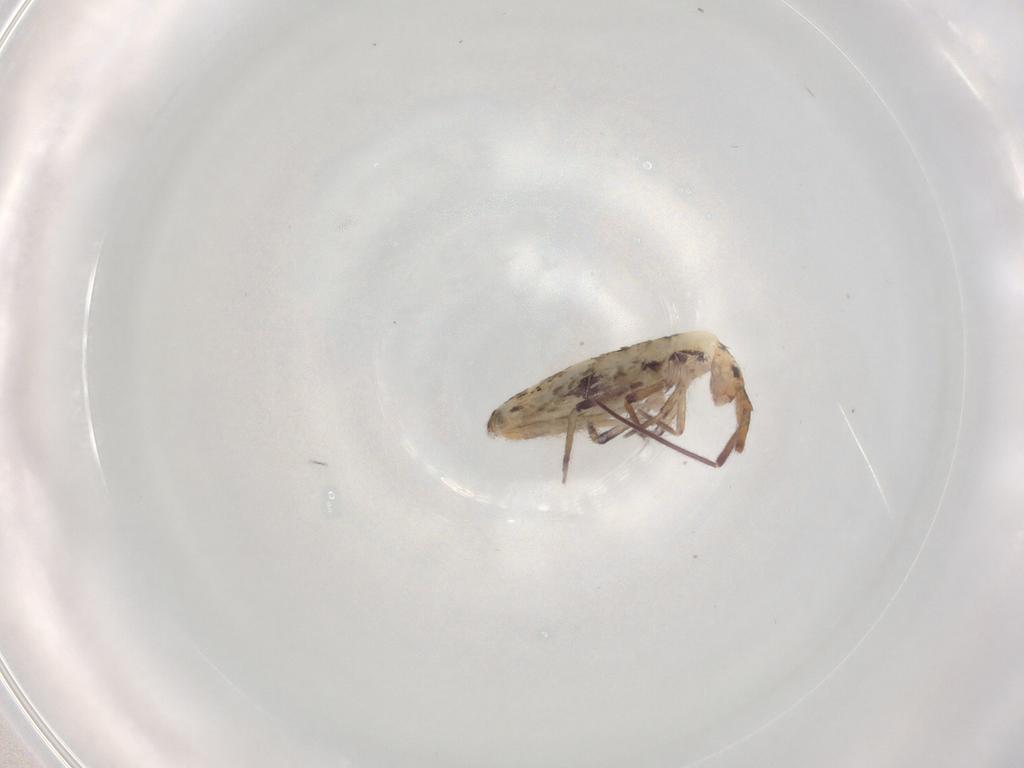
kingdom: Animalia
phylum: Arthropoda
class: Collembola
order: Entomobryomorpha
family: Entomobryidae
